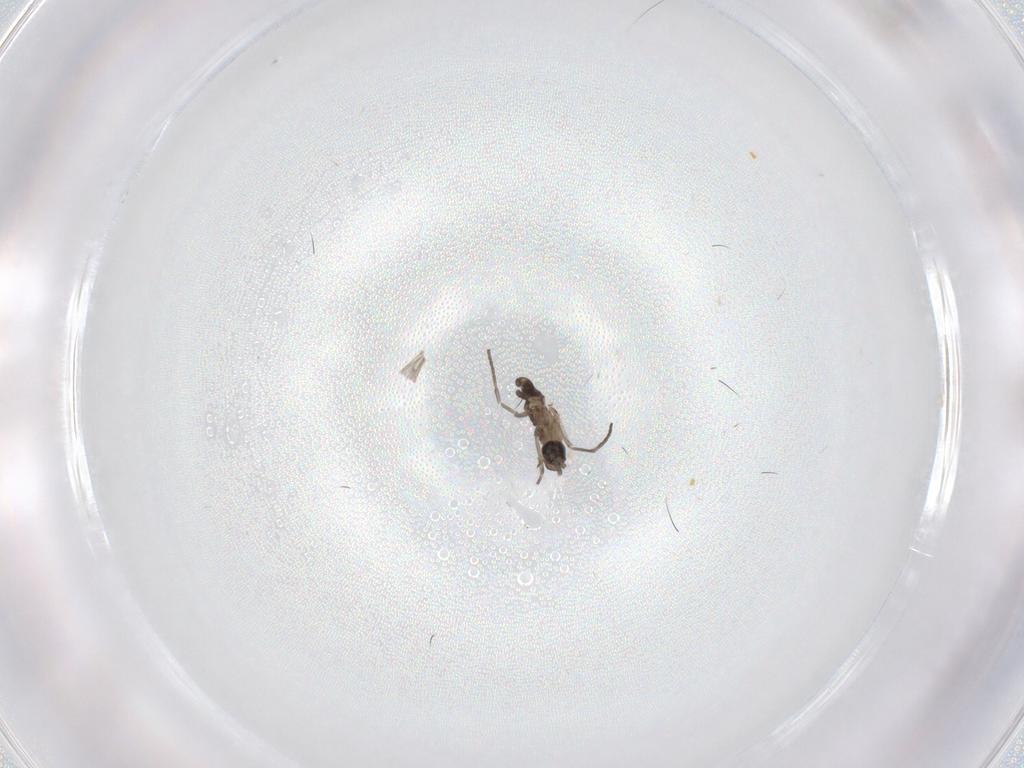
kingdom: Animalia
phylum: Arthropoda
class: Insecta
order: Diptera
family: Sciaridae
